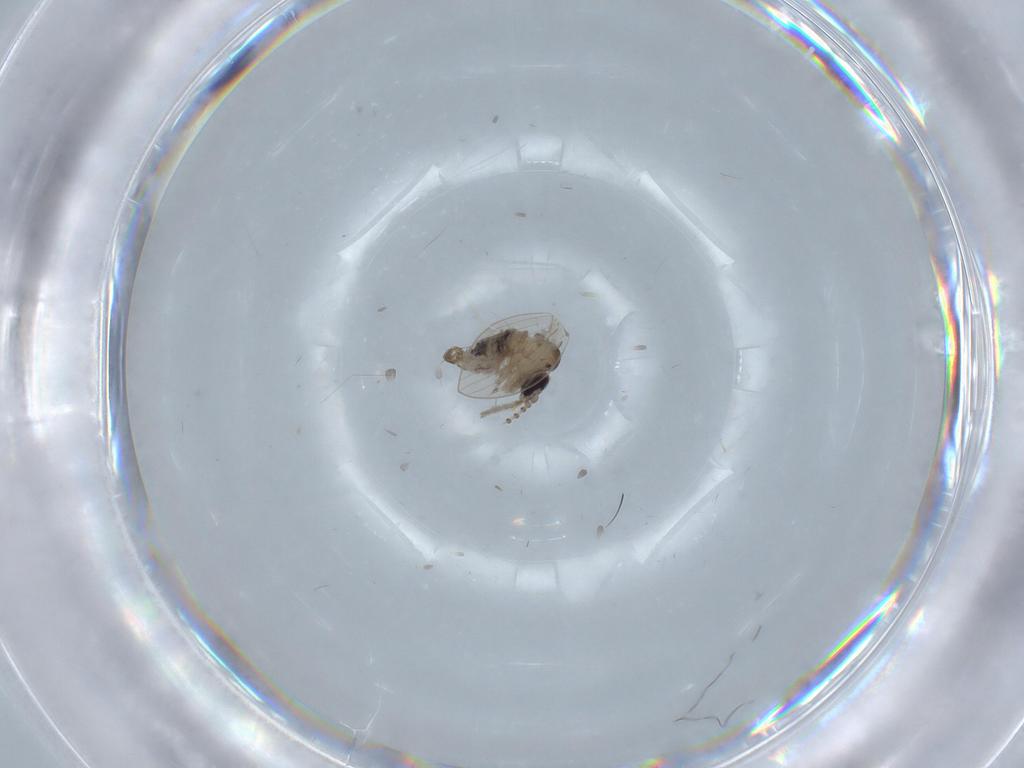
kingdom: Animalia
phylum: Arthropoda
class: Insecta
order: Diptera
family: Psychodidae
